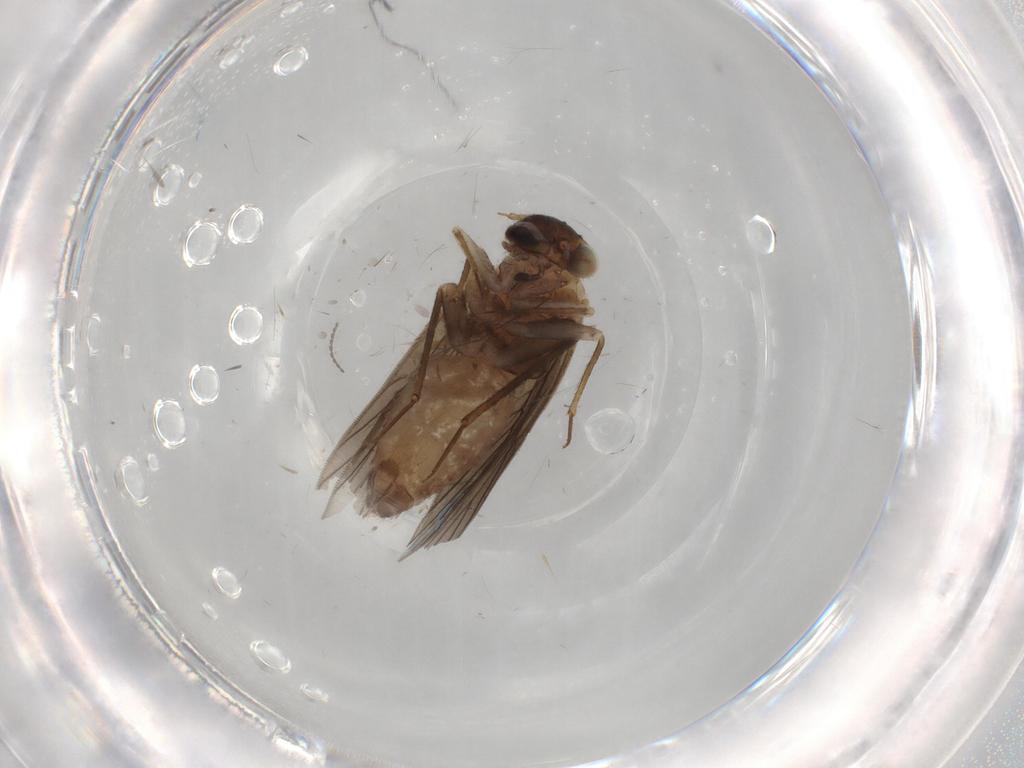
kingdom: Animalia
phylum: Arthropoda
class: Insecta
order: Psocodea
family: Lepidopsocidae
